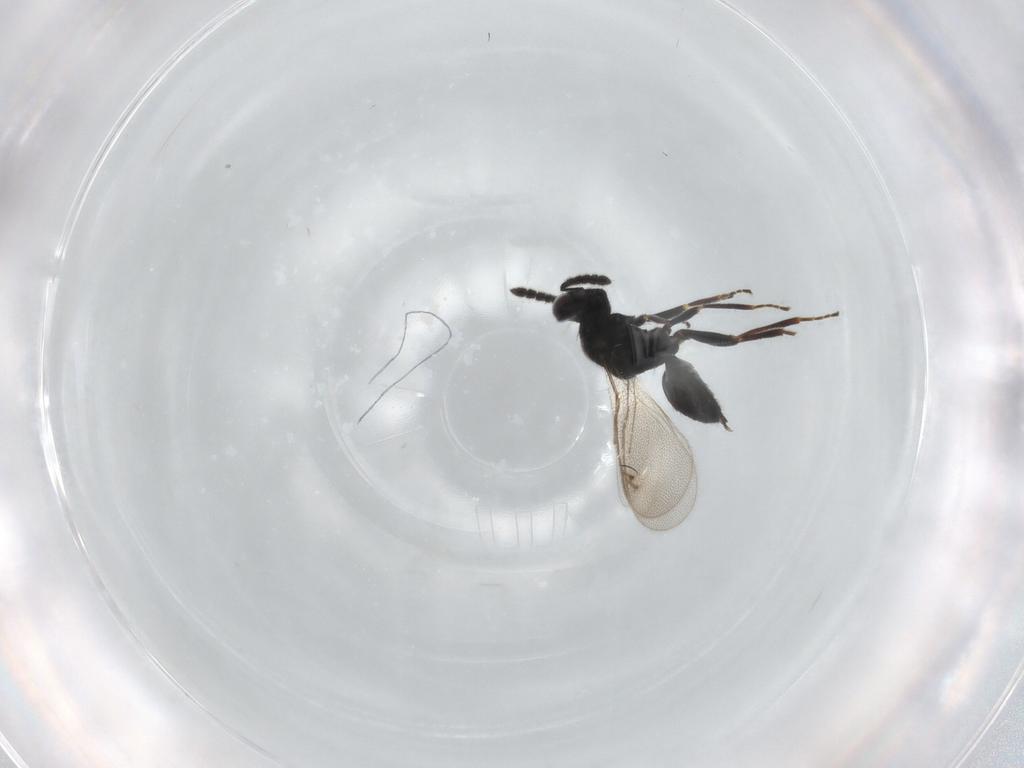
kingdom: Animalia
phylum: Arthropoda
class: Insecta
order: Hymenoptera
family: Eulophidae
